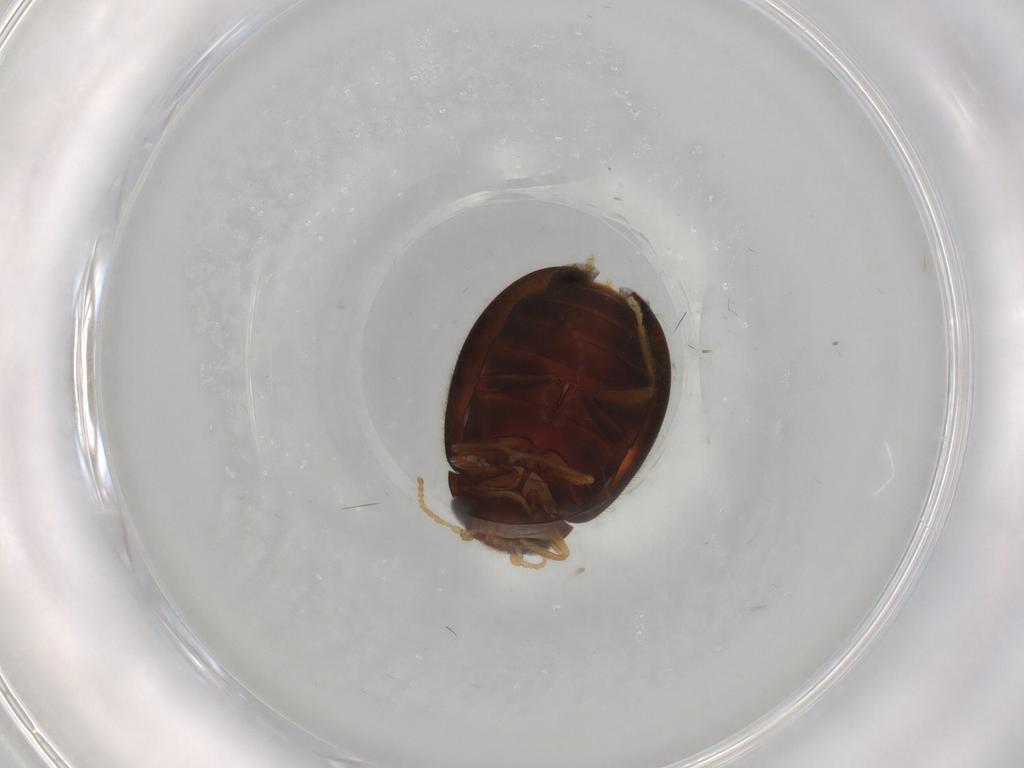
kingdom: Animalia
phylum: Arthropoda
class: Insecta
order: Coleoptera
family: Scirtidae
